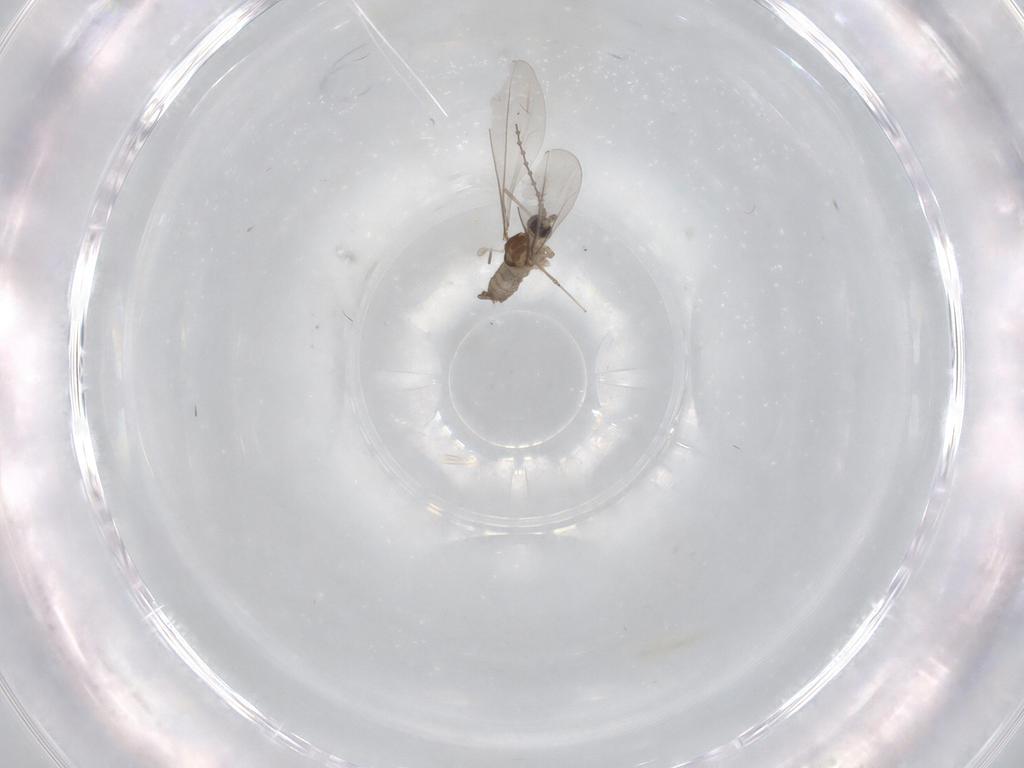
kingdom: Animalia
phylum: Arthropoda
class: Insecta
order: Diptera
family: Cecidomyiidae
